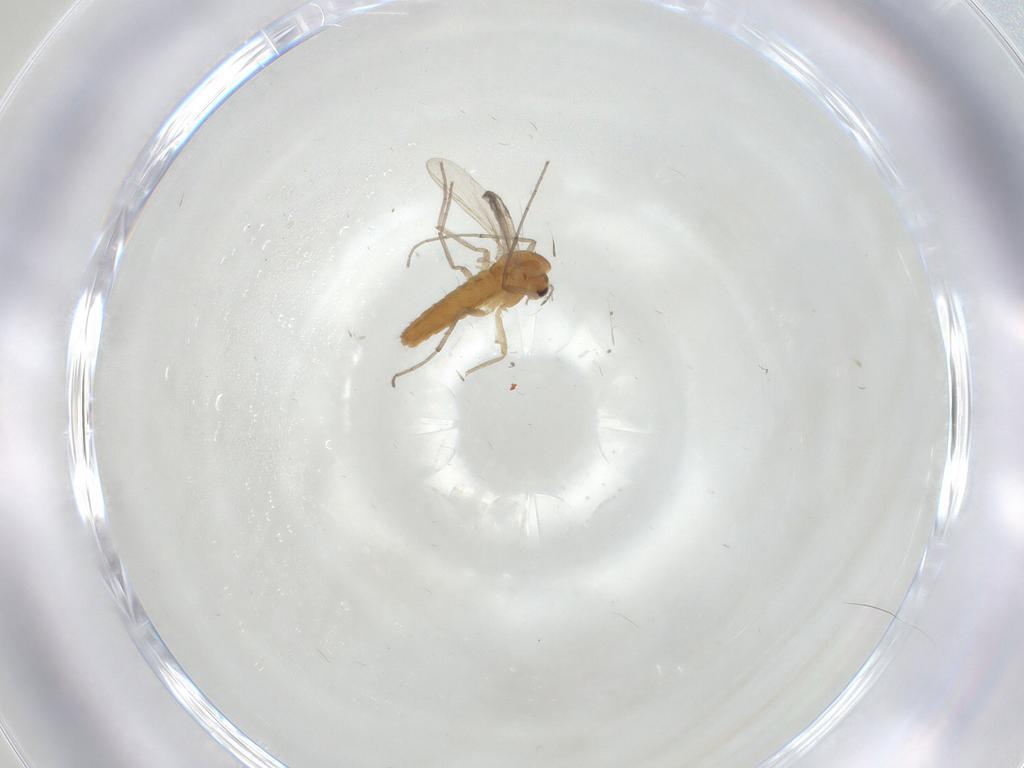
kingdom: Animalia
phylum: Arthropoda
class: Insecta
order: Diptera
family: Chironomidae
